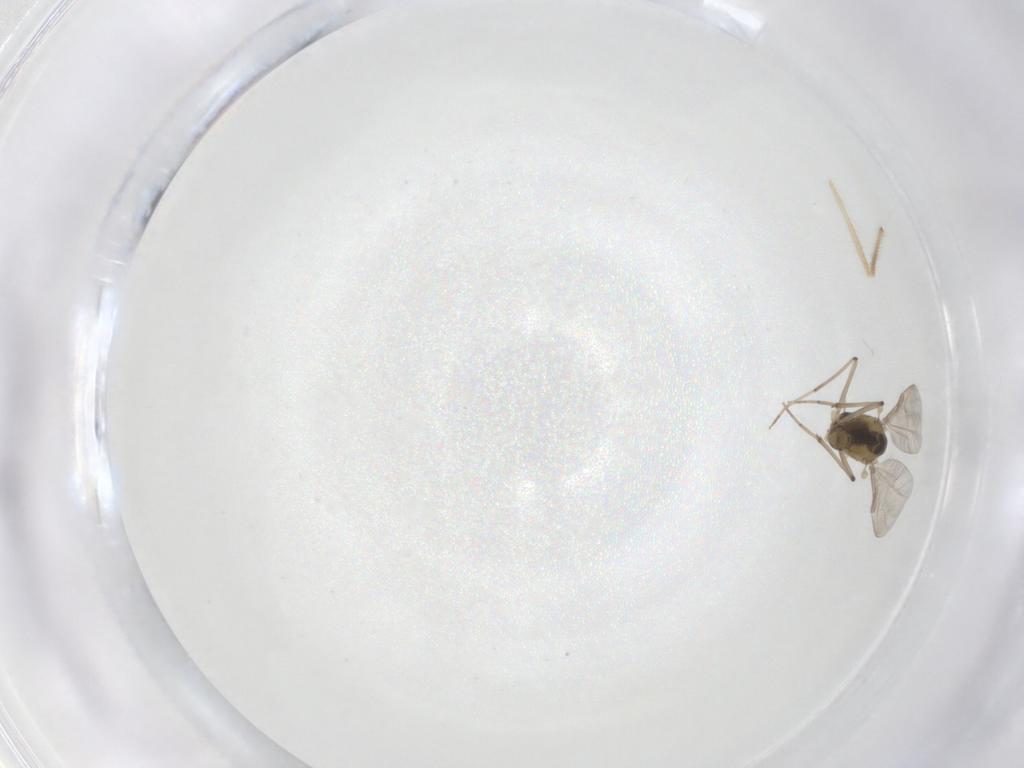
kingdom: Animalia
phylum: Arthropoda
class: Insecta
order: Diptera
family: Chironomidae
